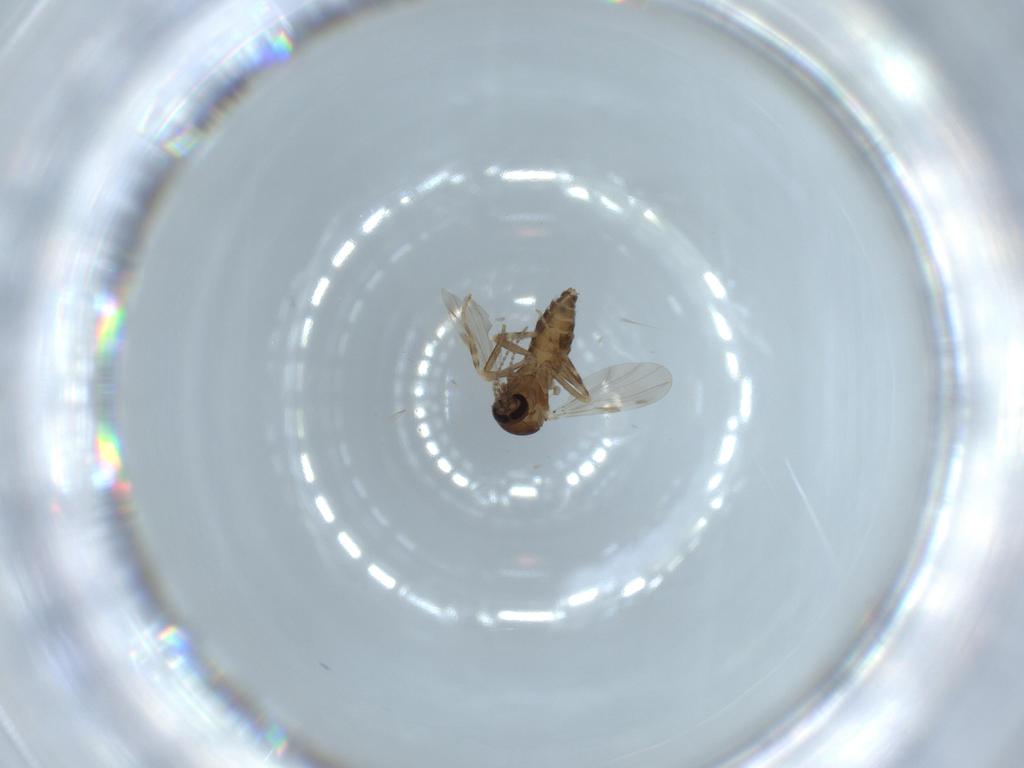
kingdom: Animalia
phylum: Arthropoda
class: Insecta
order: Diptera
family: Ceratopogonidae
